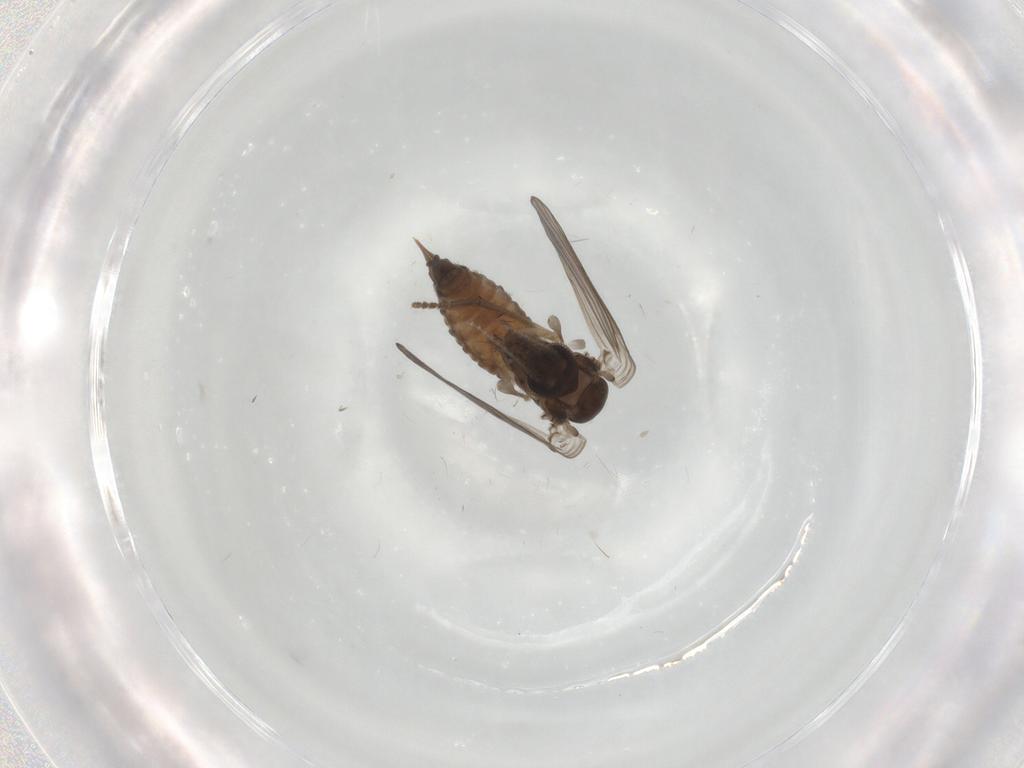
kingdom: Animalia
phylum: Arthropoda
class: Insecta
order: Diptera
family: Psychodidae
